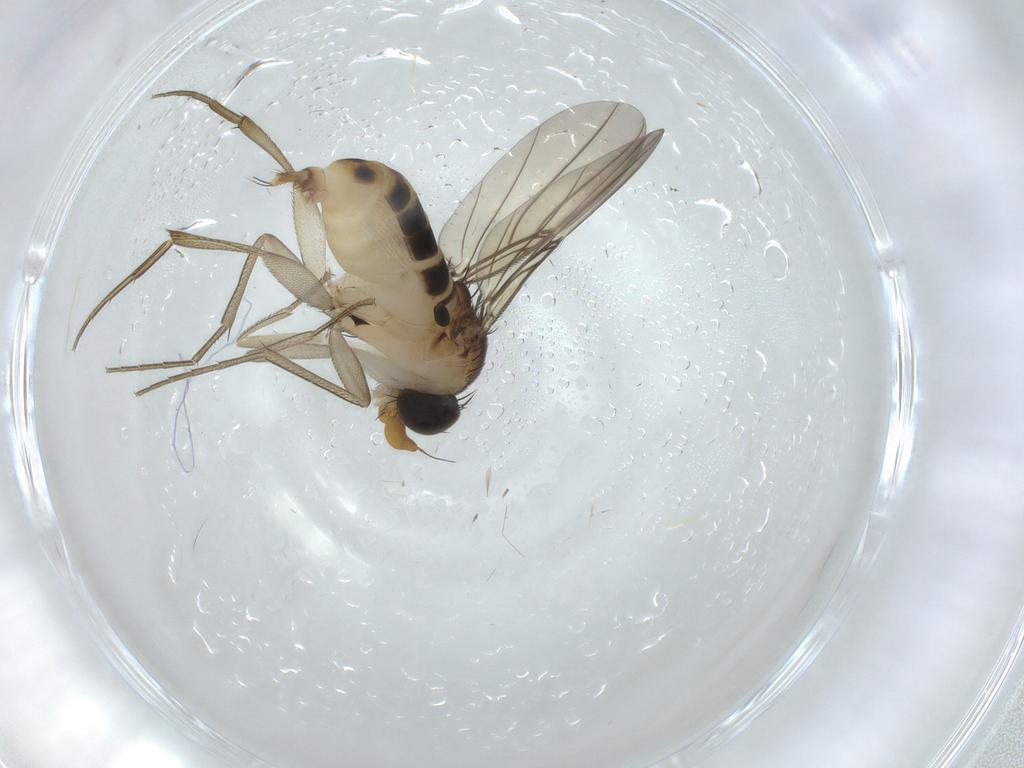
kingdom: Animalia
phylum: Arthropoda
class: Insecta
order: Diptera
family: Phoridae
